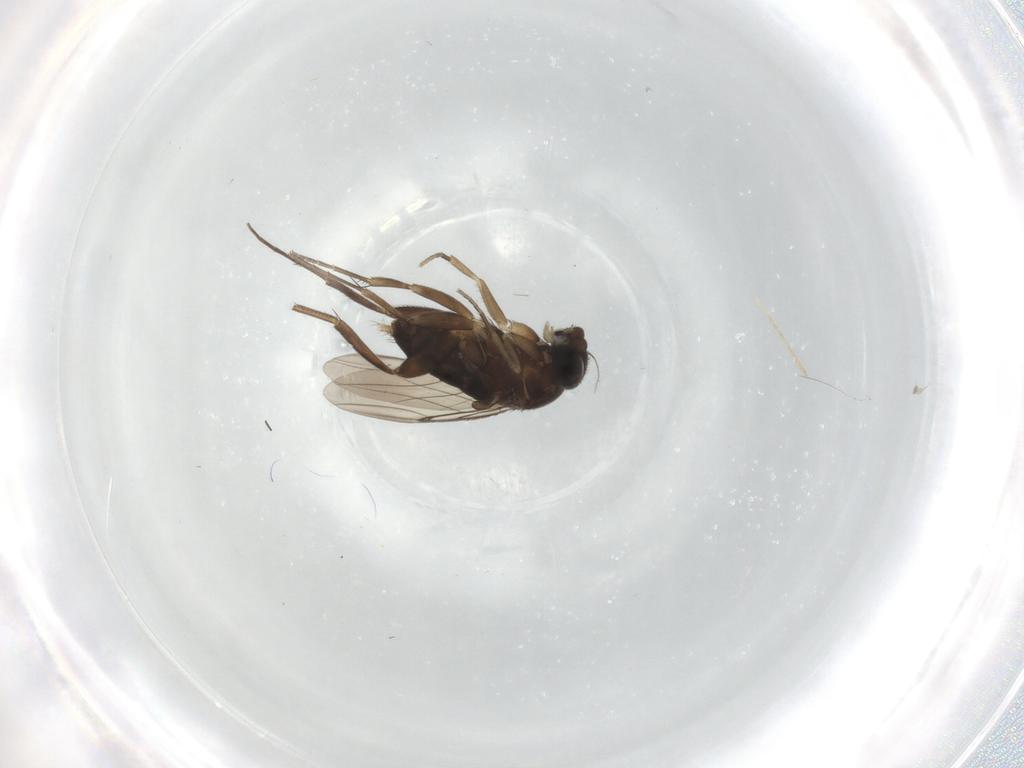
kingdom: Animalia
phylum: Arthropoda
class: Insecta
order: Diptera
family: Phoridae
